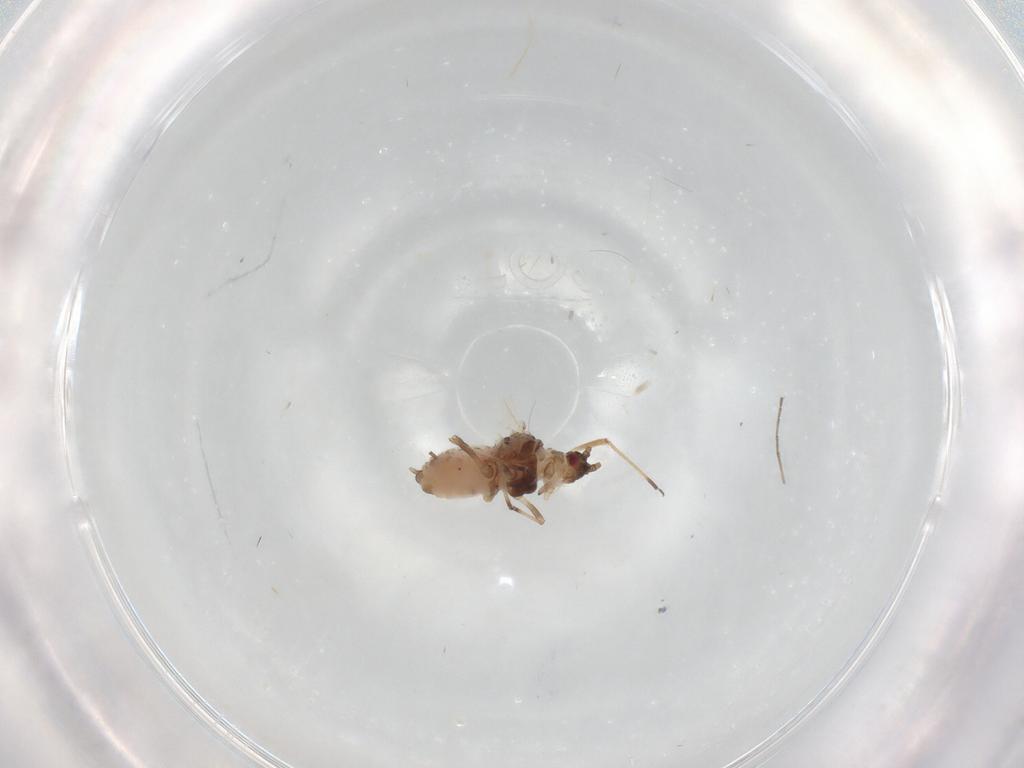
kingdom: Animalia
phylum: Arthropoda
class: Insecta
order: Hemiptera
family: Aphididae
